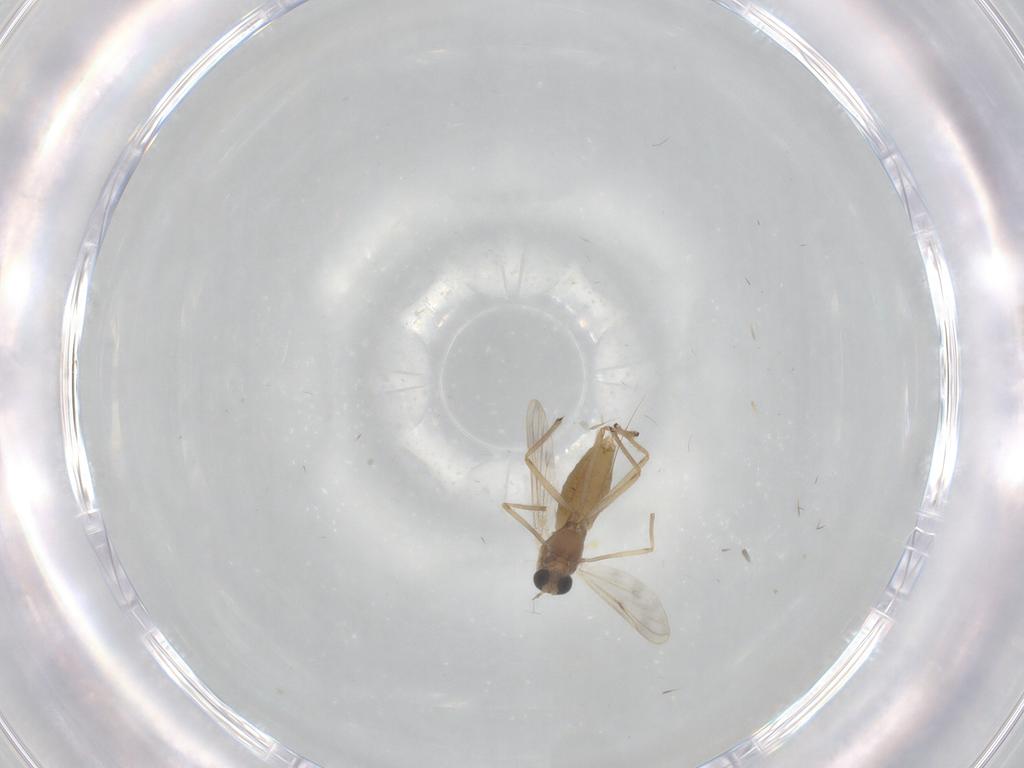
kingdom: Animalia
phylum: Arthropoda
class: Insecta
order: Diptera
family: Chironomidae
